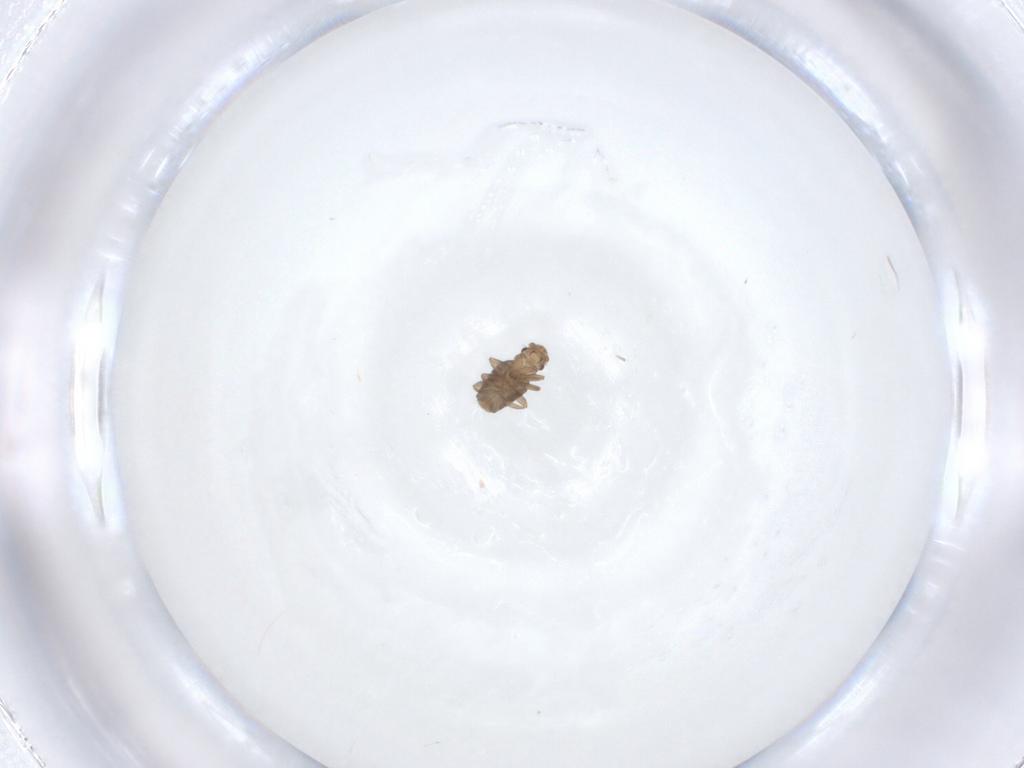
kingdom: Animalia
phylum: Arthropoda
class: Insecta
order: Diptera
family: Phoridae
